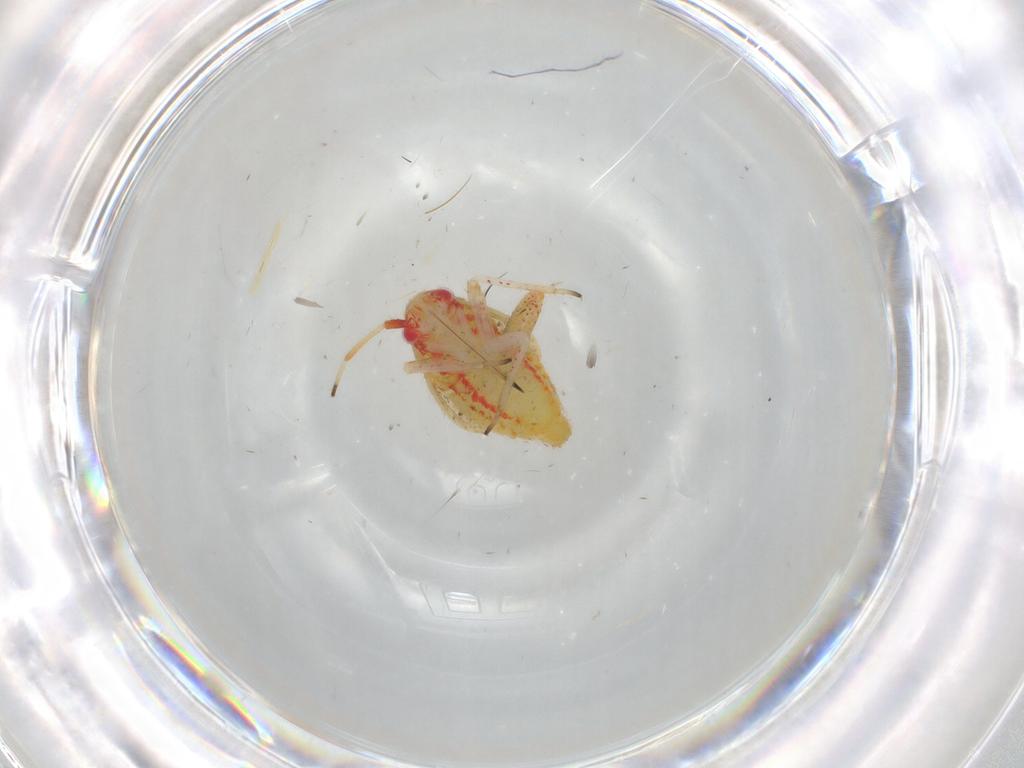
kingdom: Animalia
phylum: Arthropoda
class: Insecta
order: Hemiptera
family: Miridae
